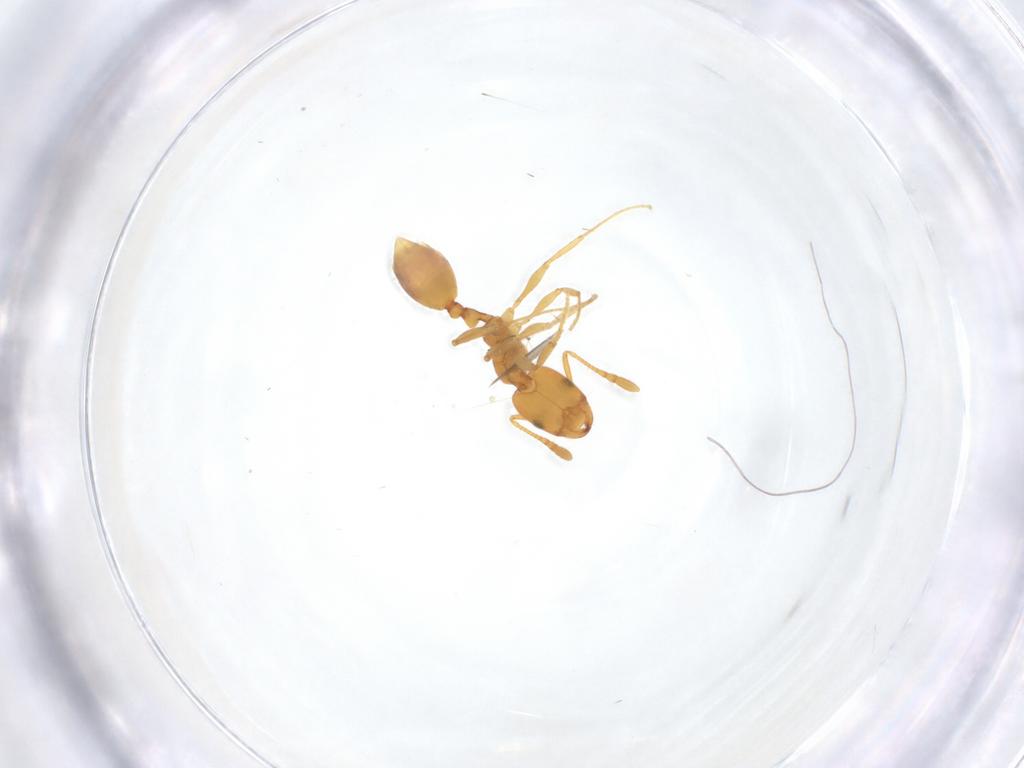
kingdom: Animalia
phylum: Arthropoda
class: Insecta
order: Hymenoptera
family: Formicidae
